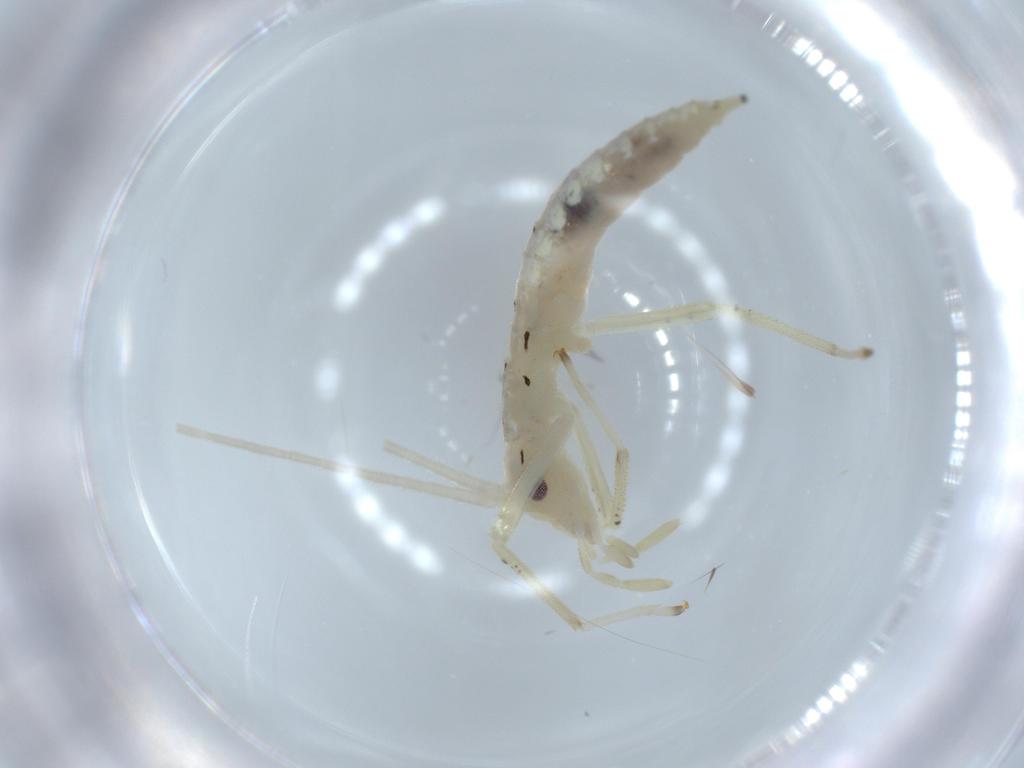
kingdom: Animalia
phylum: Arthropoda
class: Insecta
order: Orthoptera
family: Oecanthidae
